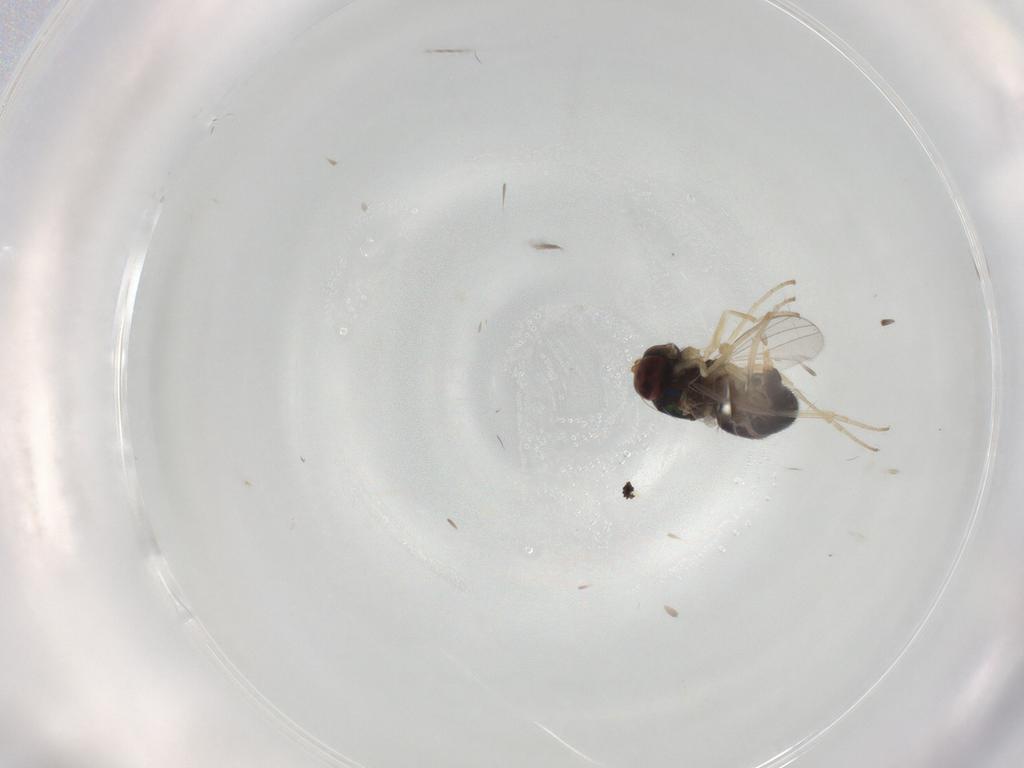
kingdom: Animalia
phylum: Arthropoda
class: Insecta
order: Diptera
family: Dolichopodidae
